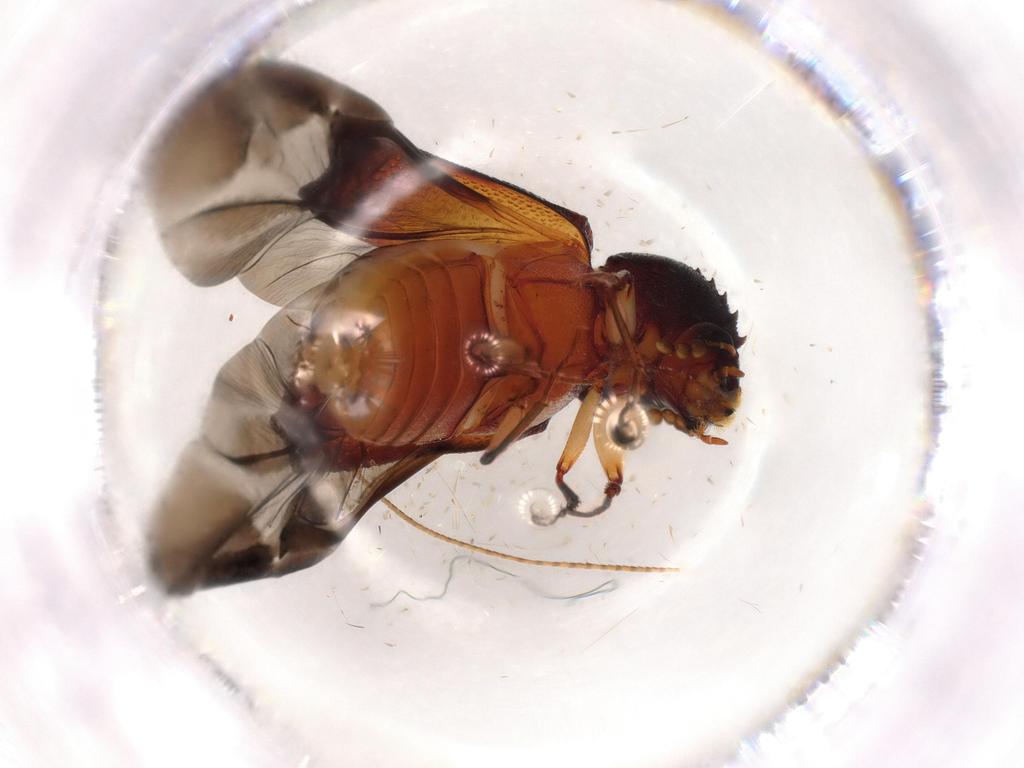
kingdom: Animalia
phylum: Arthropoda
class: Insecta
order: Coleoptera
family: Bostrichidae
